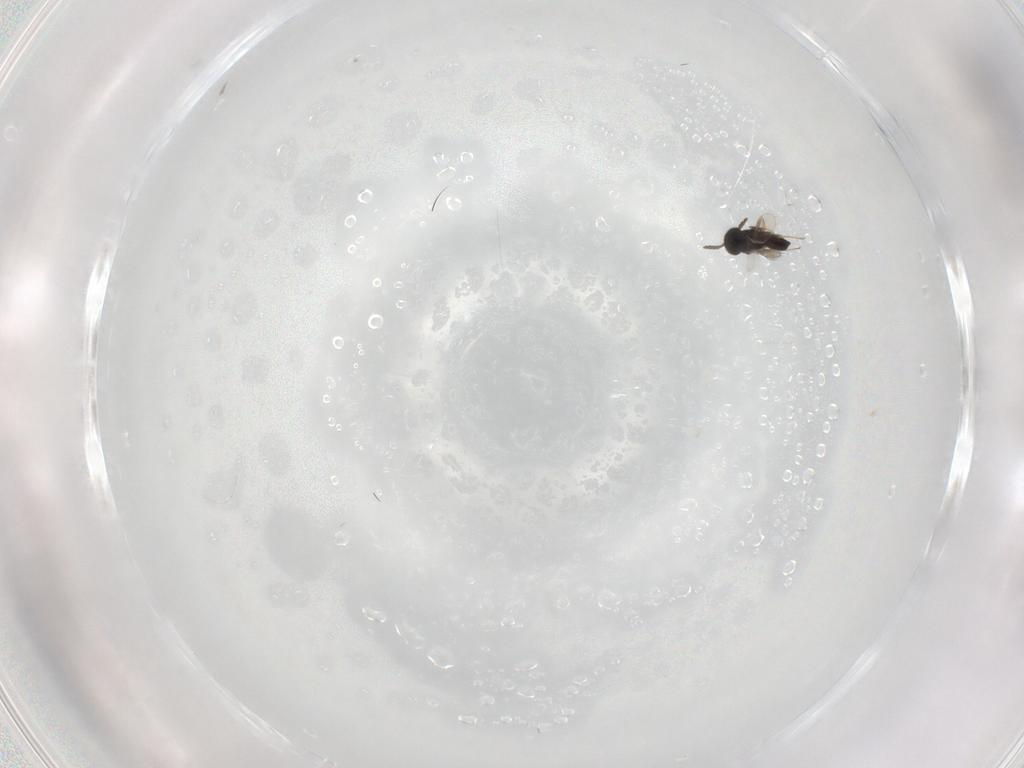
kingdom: Animalia
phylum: Arthropoda
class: Insecta
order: Hymenoptera
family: Scelionidae
